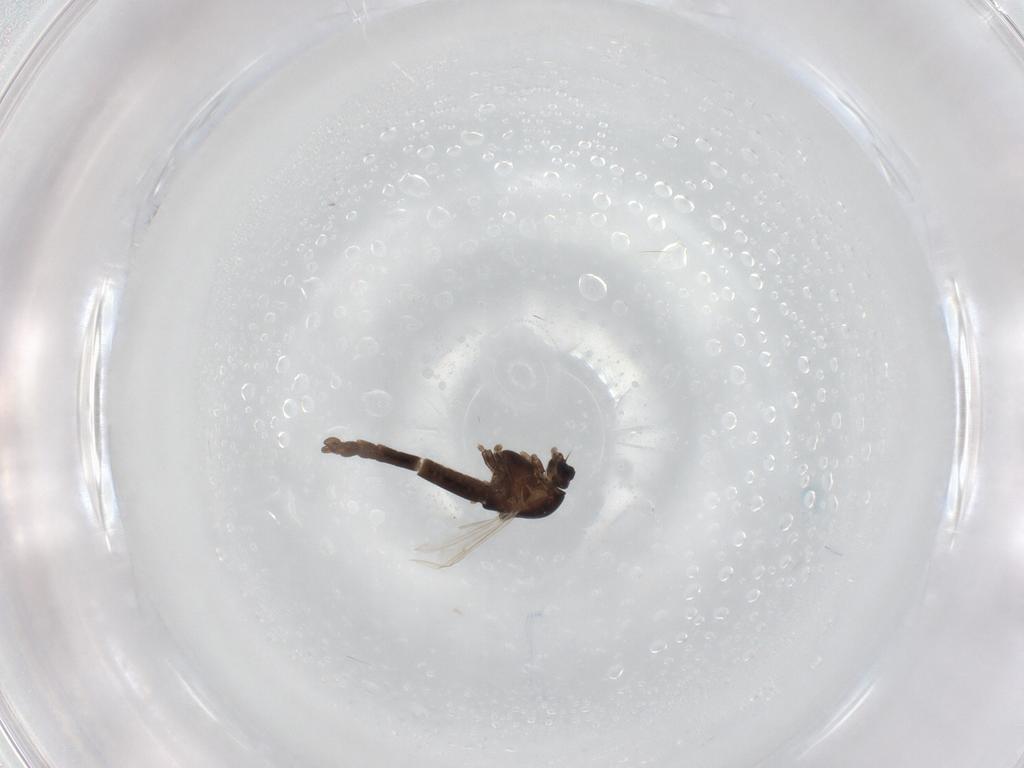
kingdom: Animalia
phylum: Arthropoda
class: Insecta
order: Diptera
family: Chironomidae
